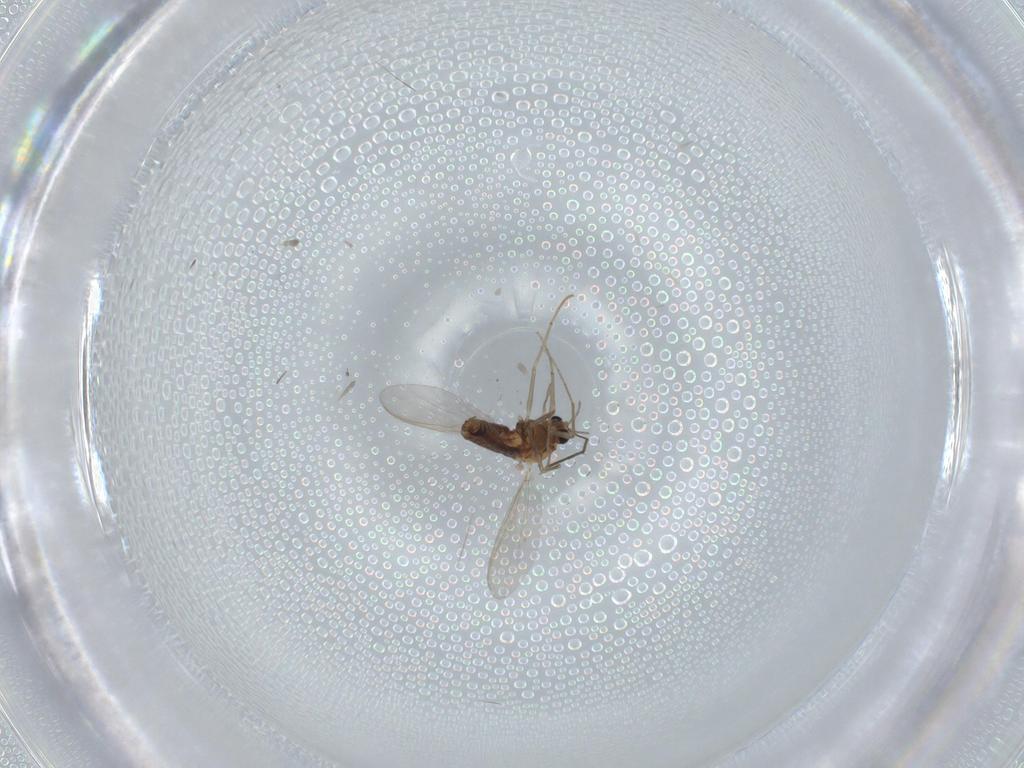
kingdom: Animalia
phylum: Arthropoda
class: Insecta
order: Diptera
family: Chironomidae
